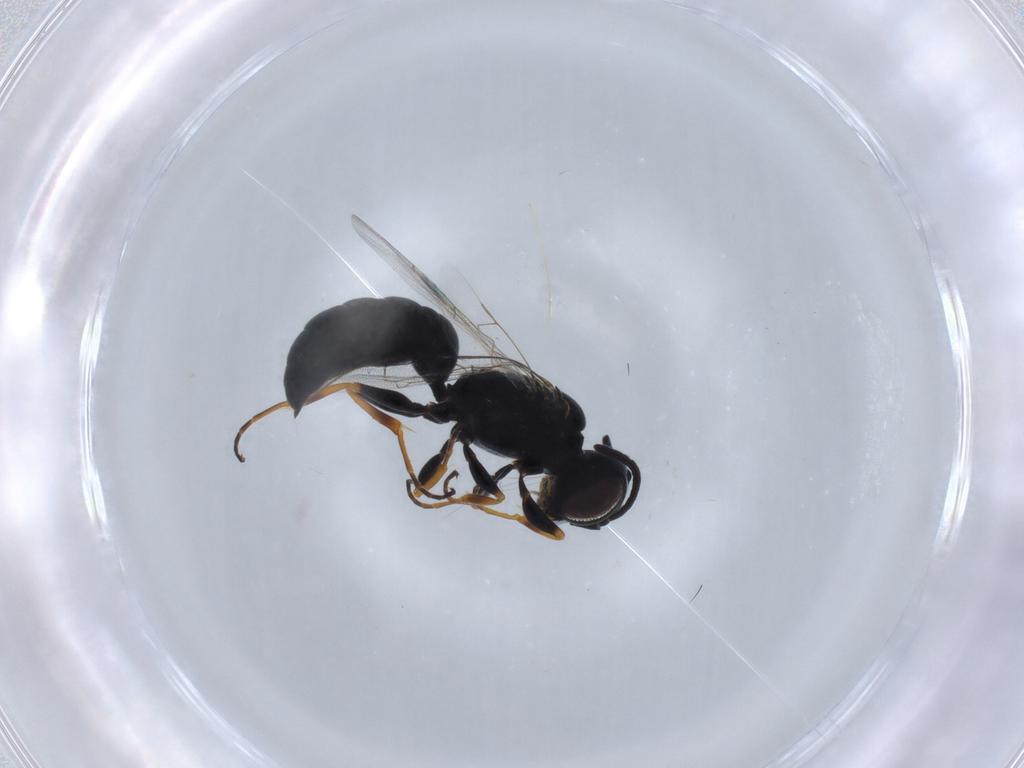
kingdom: Animalia
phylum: Arthropoda
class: Insecta
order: Hymenoptera
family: Pemphredonidae
